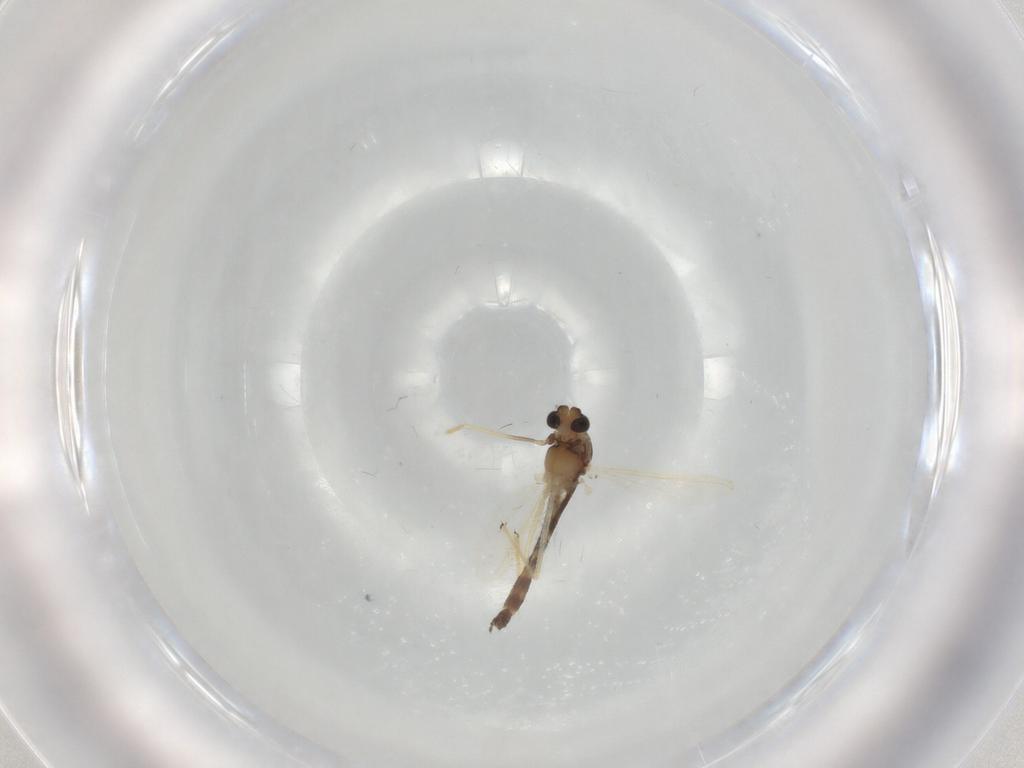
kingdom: Animalia
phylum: Arthropoda
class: Insecta
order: Diptera
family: Chironomidae
